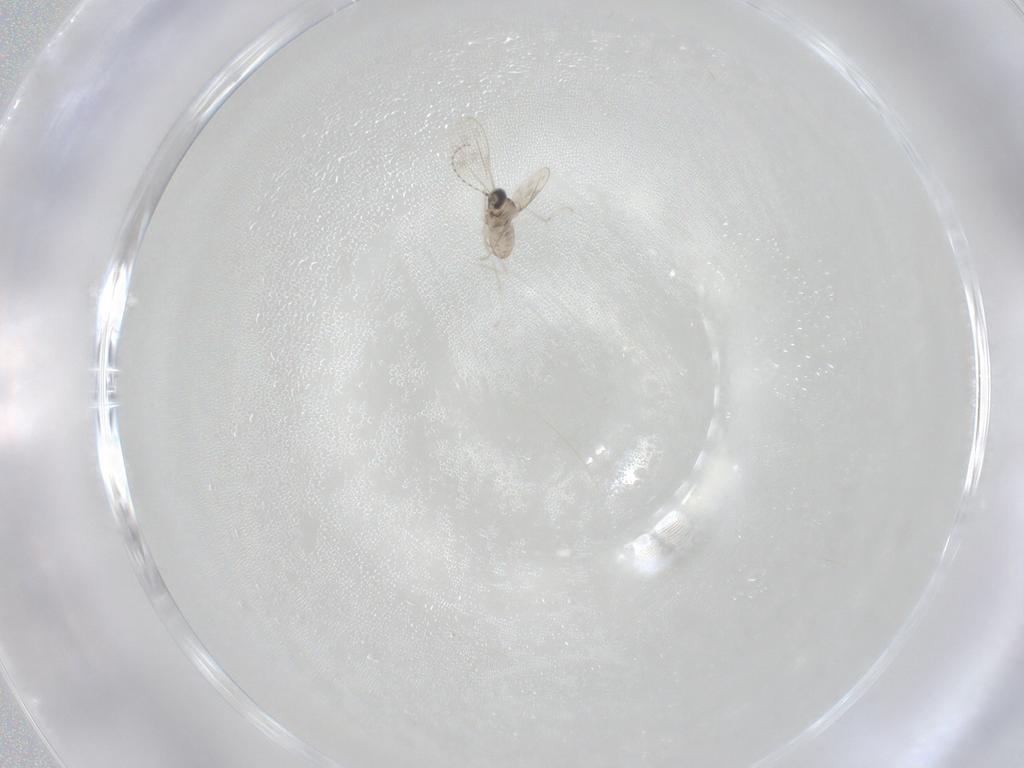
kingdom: Animalia
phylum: Arthropoda
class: Insecta
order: Diptera
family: Cecidomyiidae
